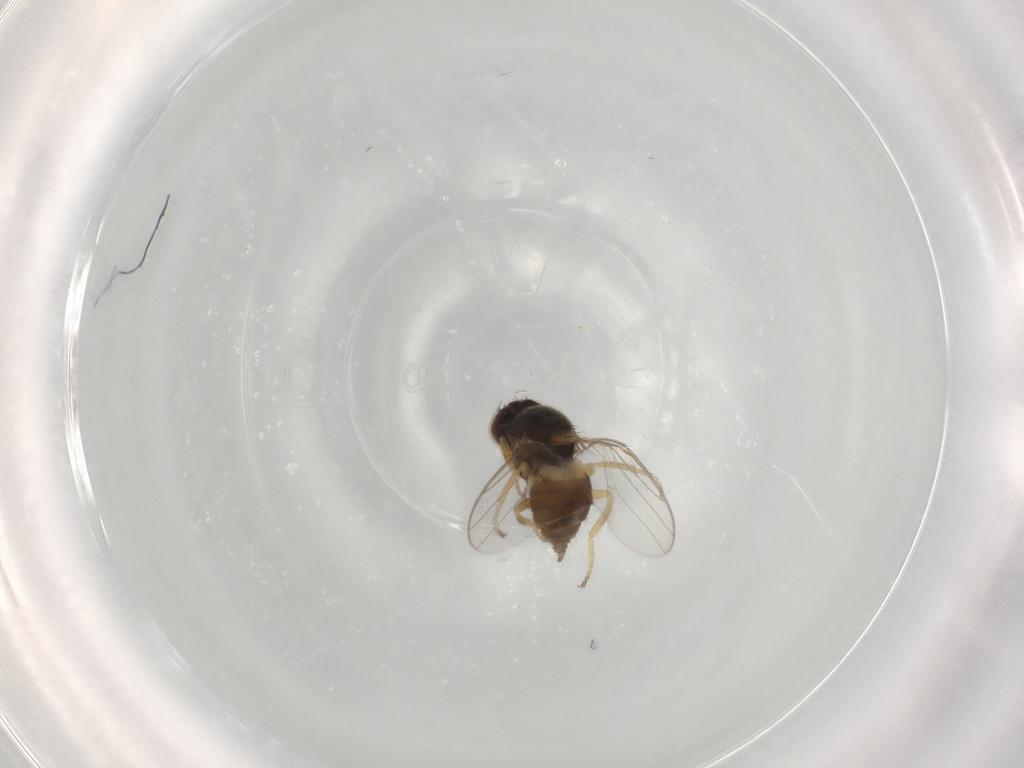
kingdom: Animalia
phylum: Arthropoda
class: Insecta
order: Diptera
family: Chloropidae
